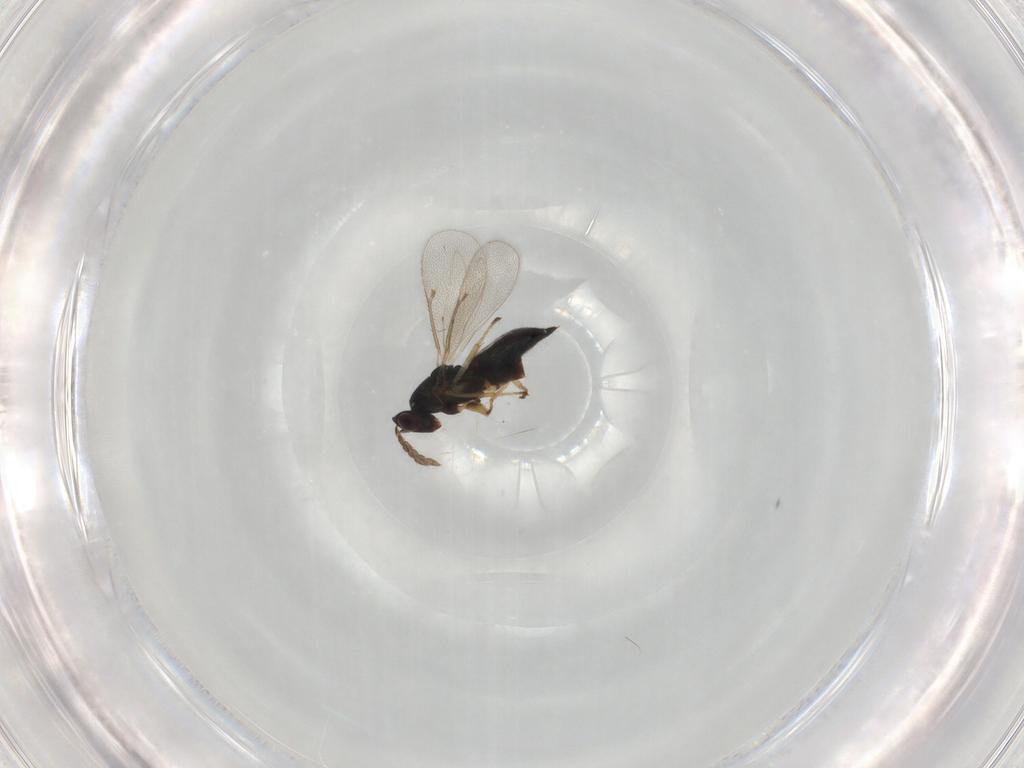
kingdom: Animalia
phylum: Arthropoda
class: Insecta
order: Hymenoptera
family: Eulophidae
